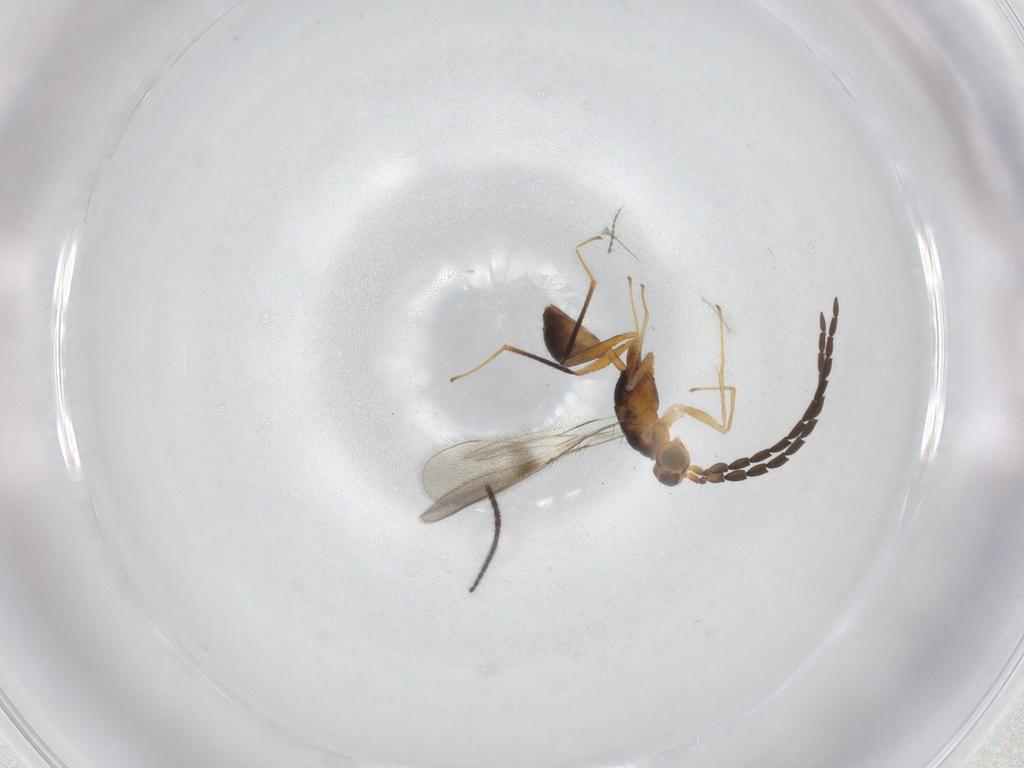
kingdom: Animalia
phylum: Arthropoda
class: Insecta
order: Hymenoptera
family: Mymaridae
